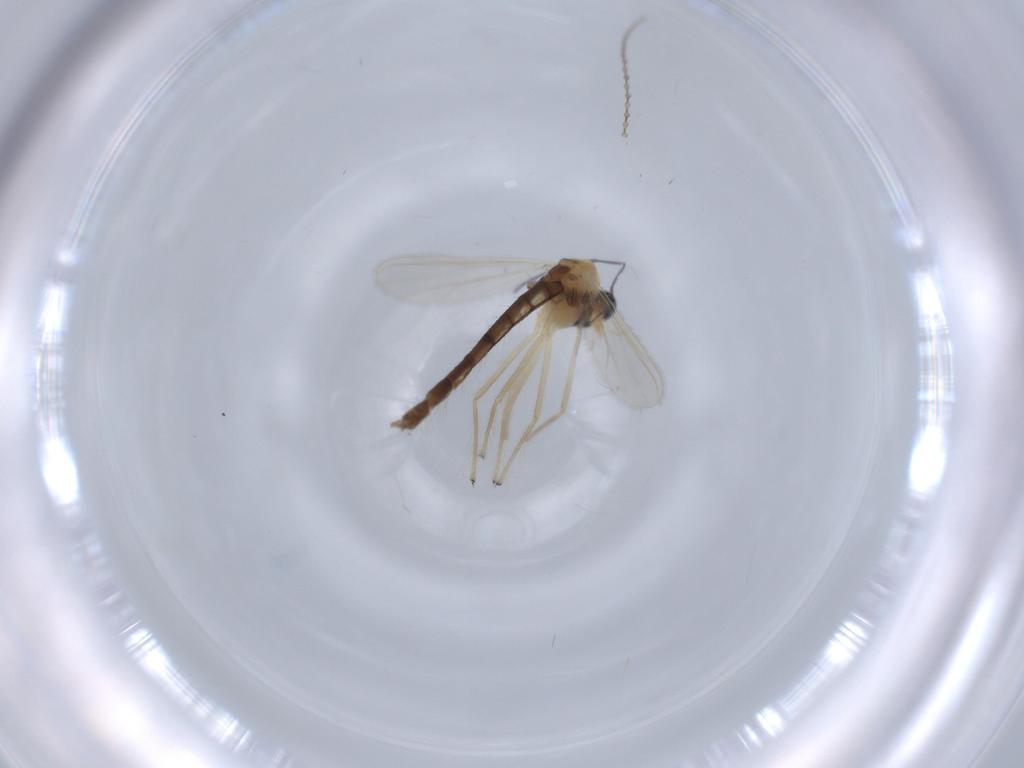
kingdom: Animalia
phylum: Arthropoda
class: Insecta
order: Diptera
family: Chironomidae
